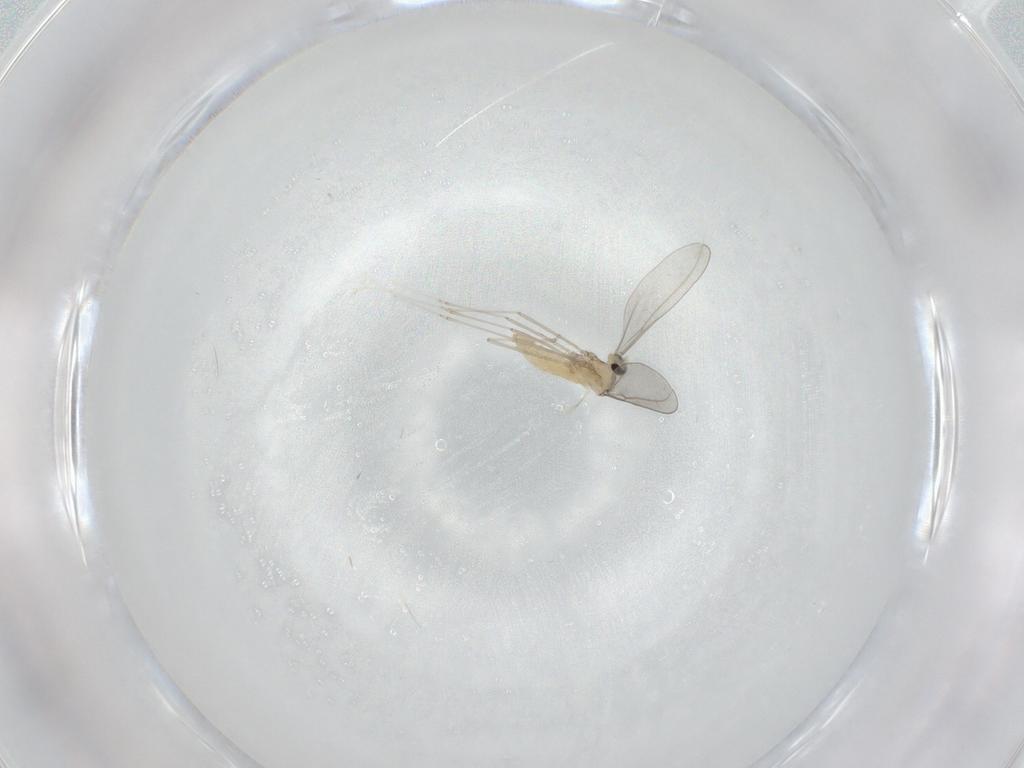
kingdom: Animalia
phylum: Arthropoda
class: Insecta
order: Diptera
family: Cecidomyiidae
